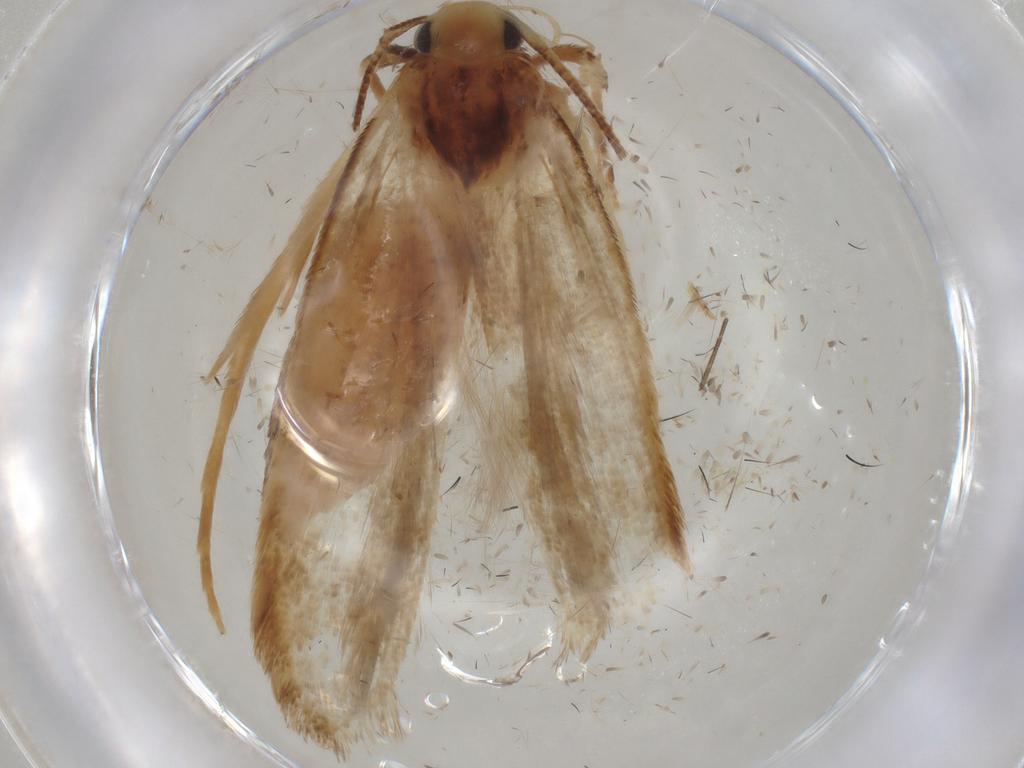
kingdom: Animalia
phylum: Arthropoda
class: Insecta
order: Lepidoptera
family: Gelechiidae
